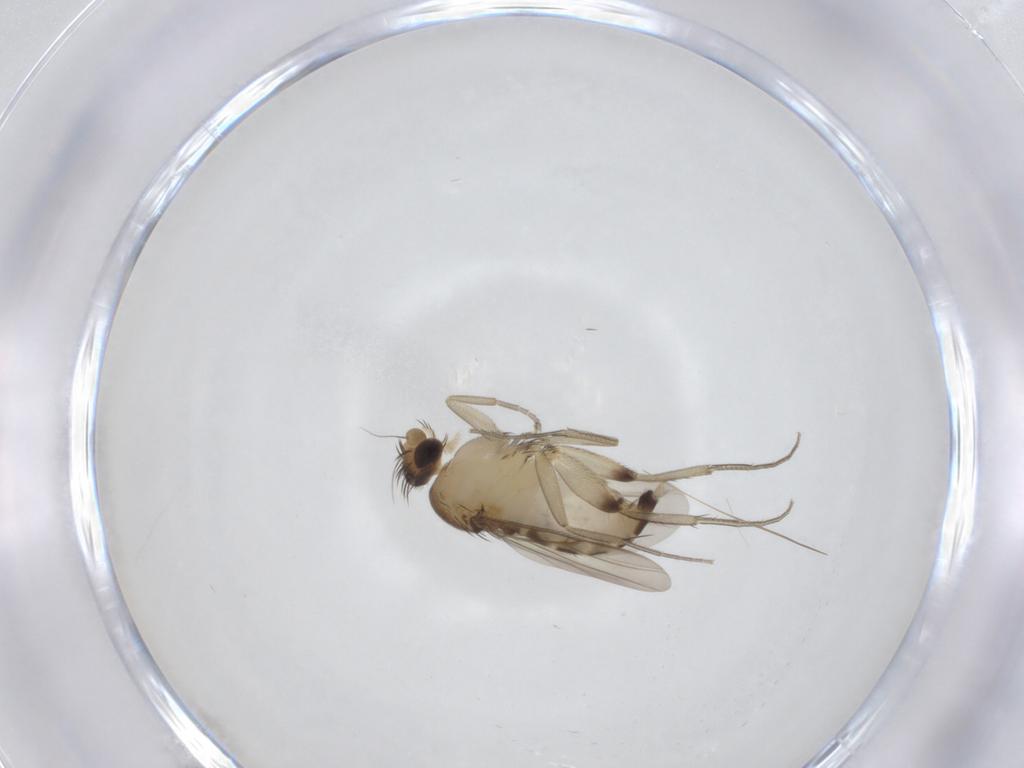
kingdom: Animalia
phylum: Arthropoda
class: Insecta
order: Diptera
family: Phoridae
